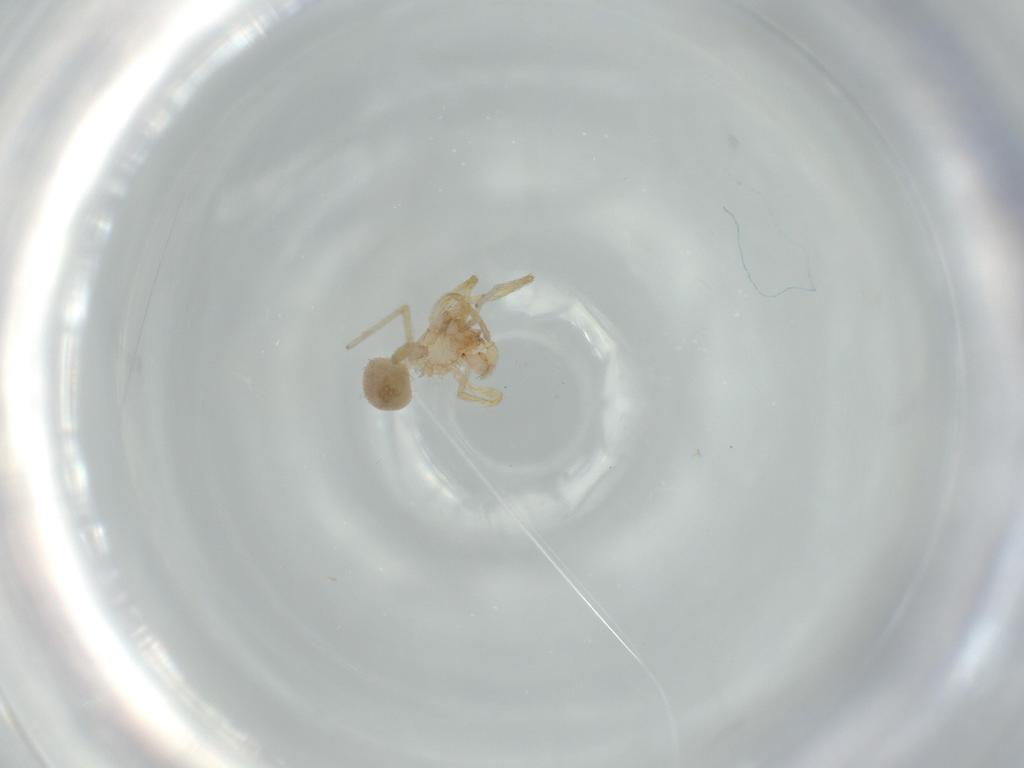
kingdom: Animalia
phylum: Arthropoda
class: Arachnida
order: Araneae
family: Oonopidae
